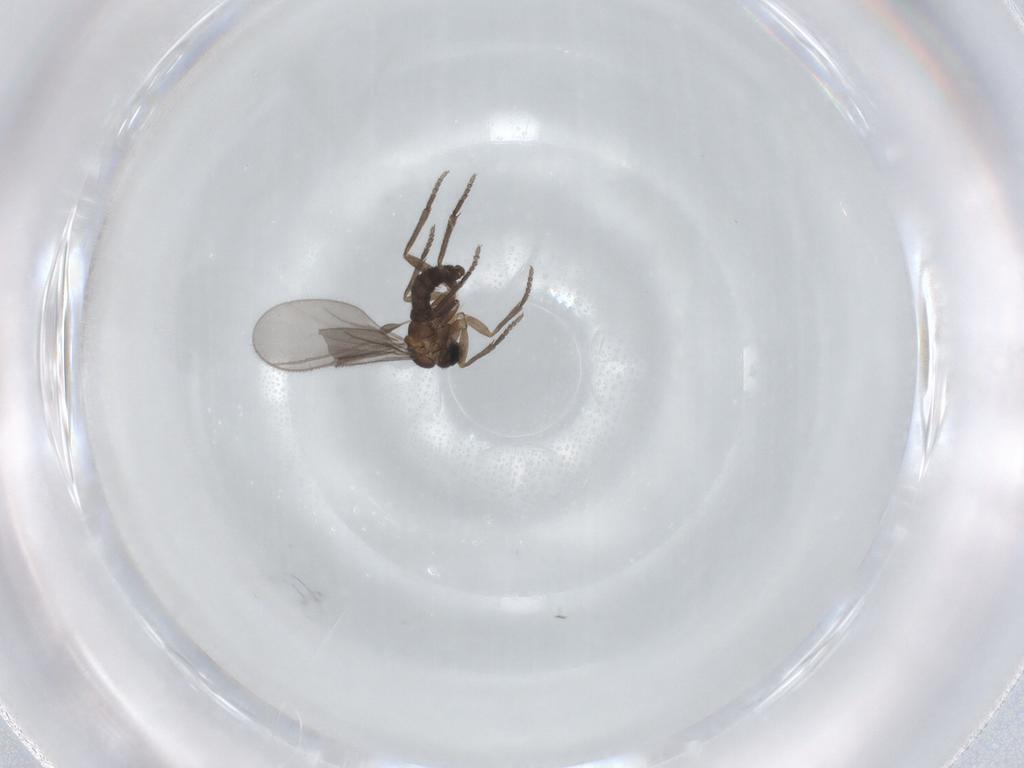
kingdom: Animalia
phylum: Arthropoda
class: Insecta
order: Diptera
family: Sciaridae
